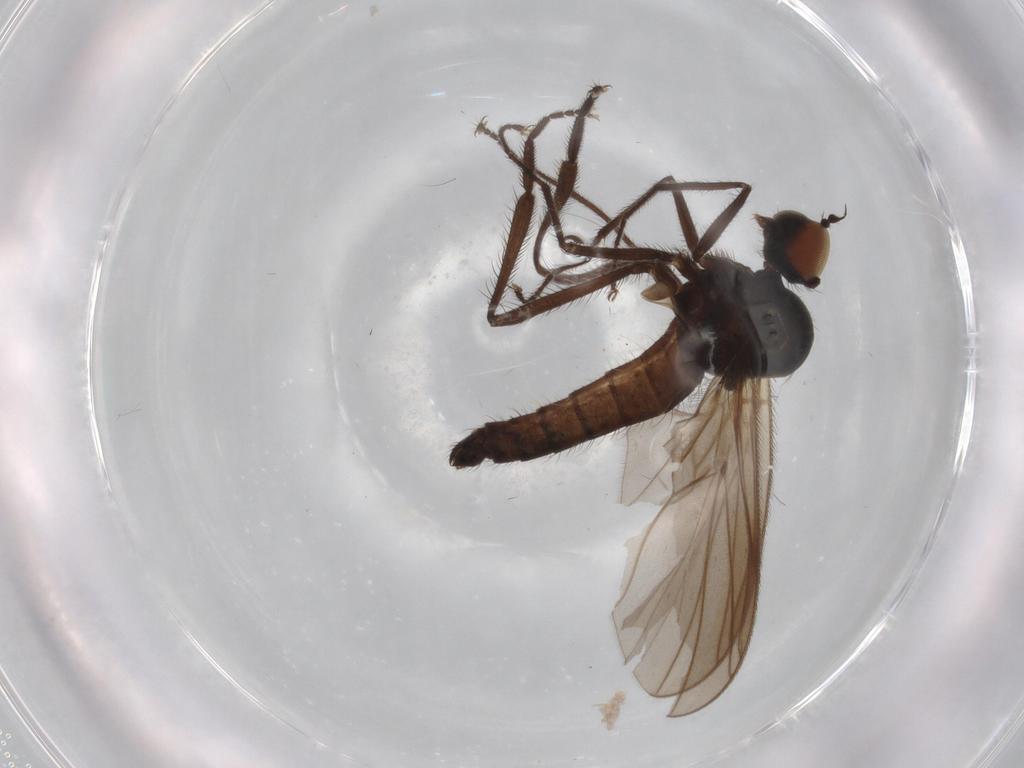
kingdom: Animalia
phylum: Arthropoda
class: Insecta
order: Diptera
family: Hybotidae
